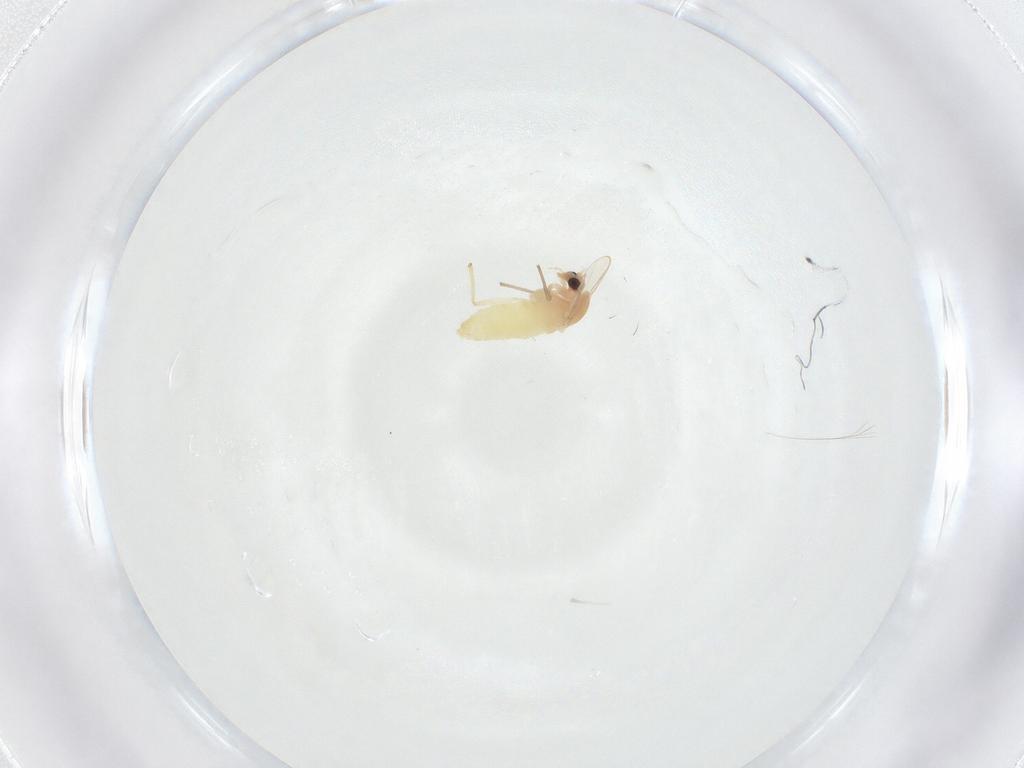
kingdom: Animalia
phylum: Arthropoda
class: Insecta
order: Diptera
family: Chironomidae
